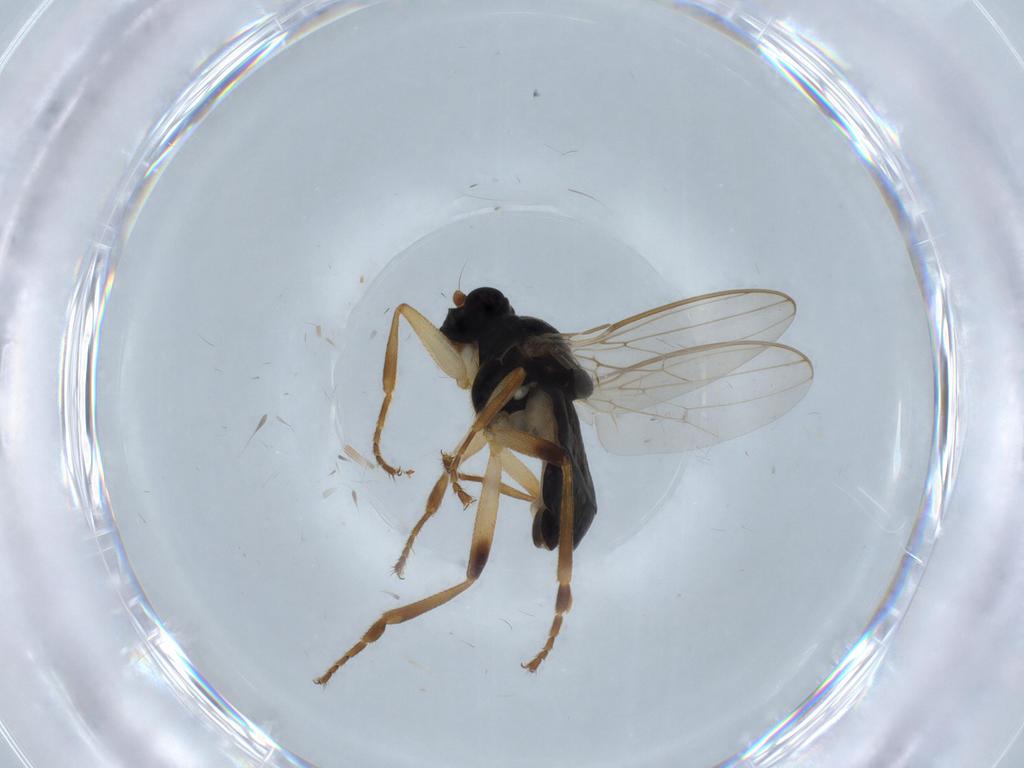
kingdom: Animalia
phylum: Arthropoda
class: Insecta
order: Diptera
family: Sphaeroceridae
